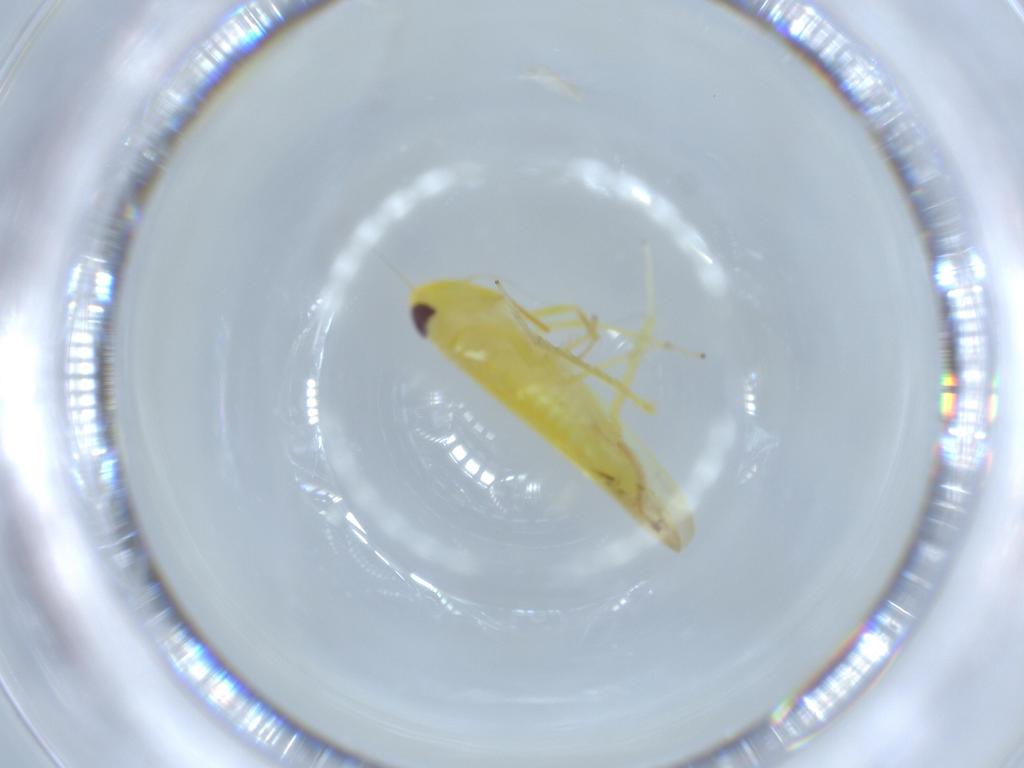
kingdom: Animalia
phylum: Arthropoda
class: Insecta
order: Hemiptera
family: Cicadellidae
